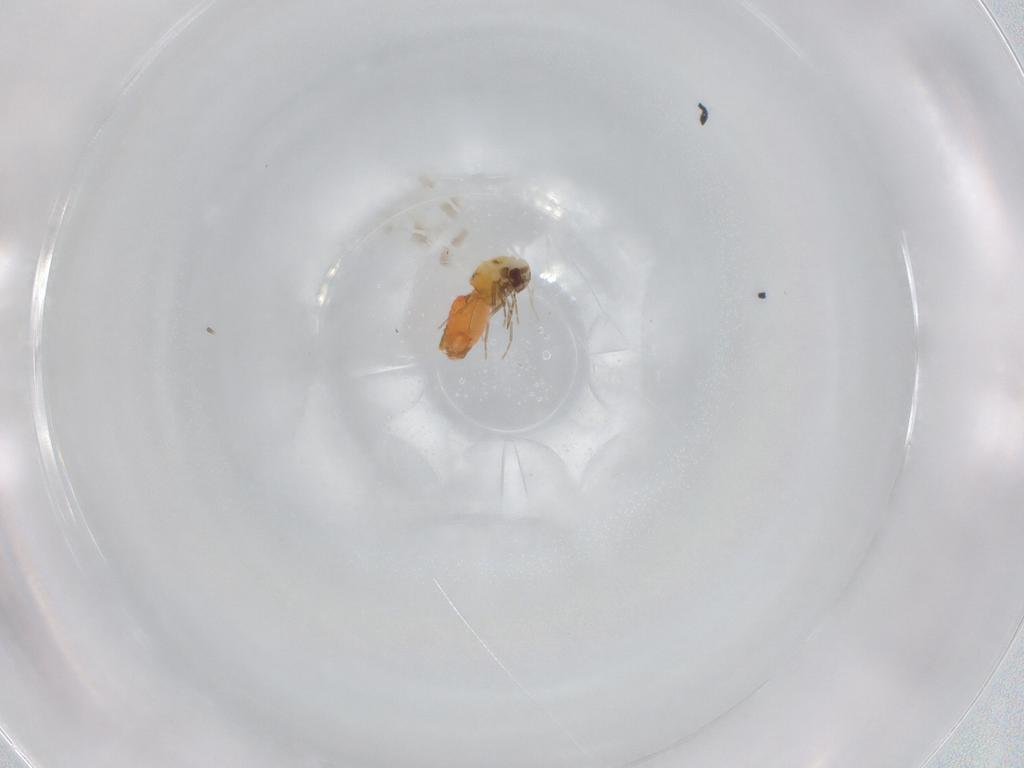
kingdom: Animalia
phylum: Arthropoda
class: Insecta
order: Hemiptera
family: Aleyrodidae
